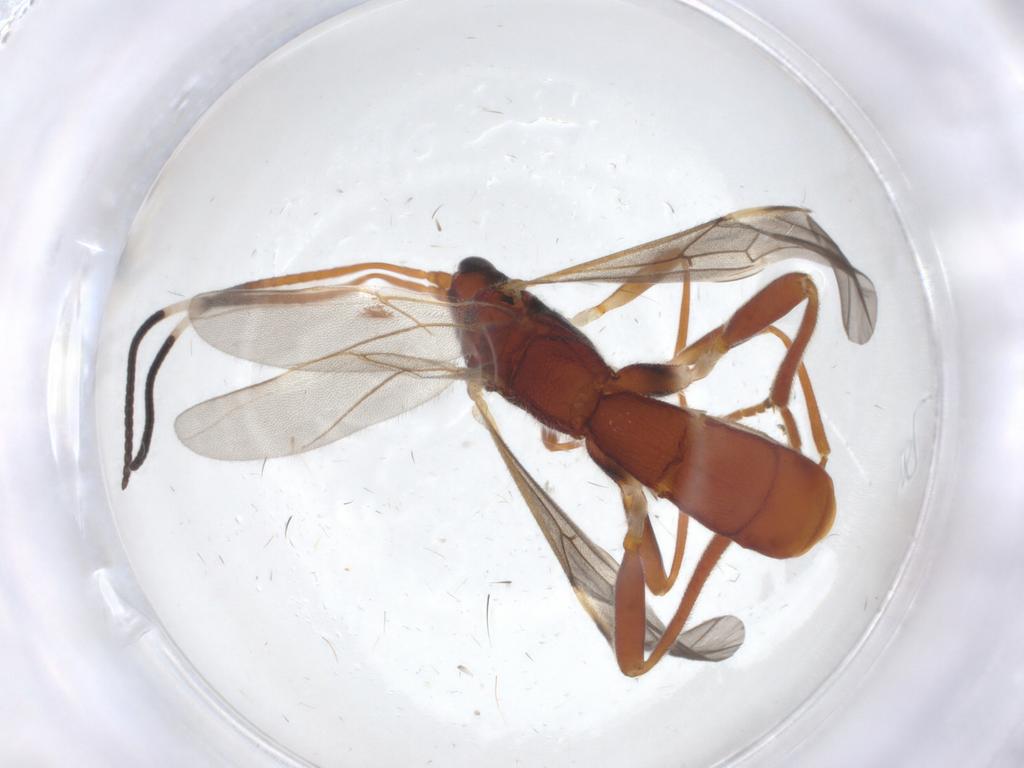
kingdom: Animalia
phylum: Arthropoda
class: Insecta
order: Hymenoptera
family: Braconidae
